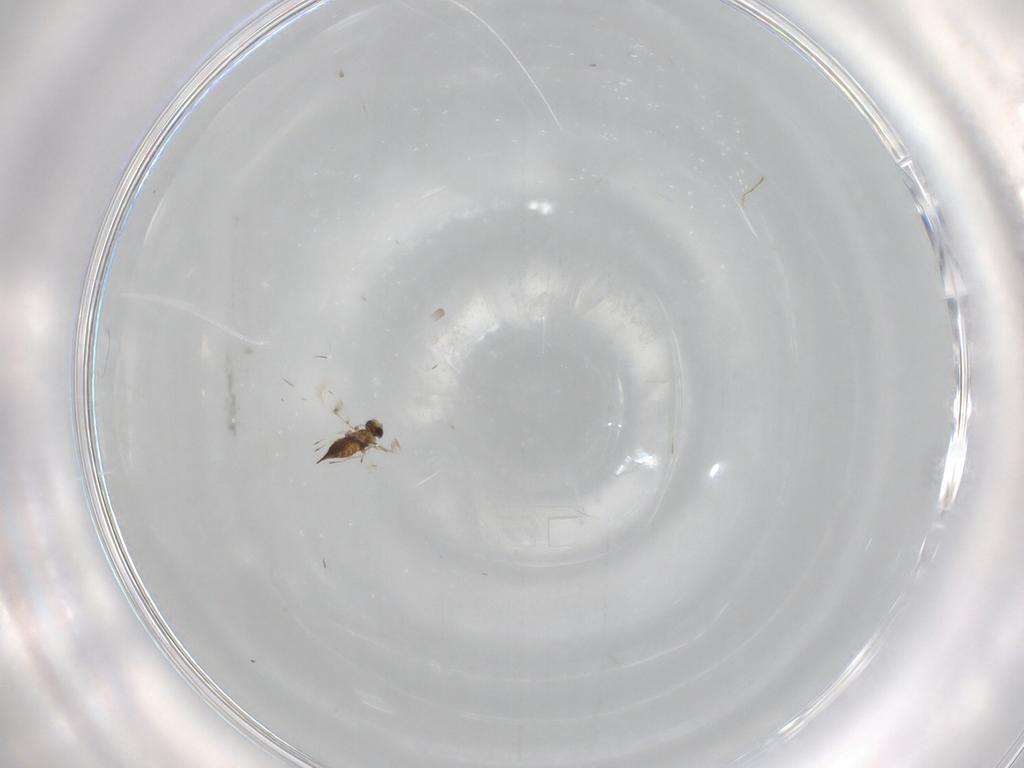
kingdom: Animalia
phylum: Arthropoda
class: Insecta
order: Hymenoptera
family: Trichogrammatidae
